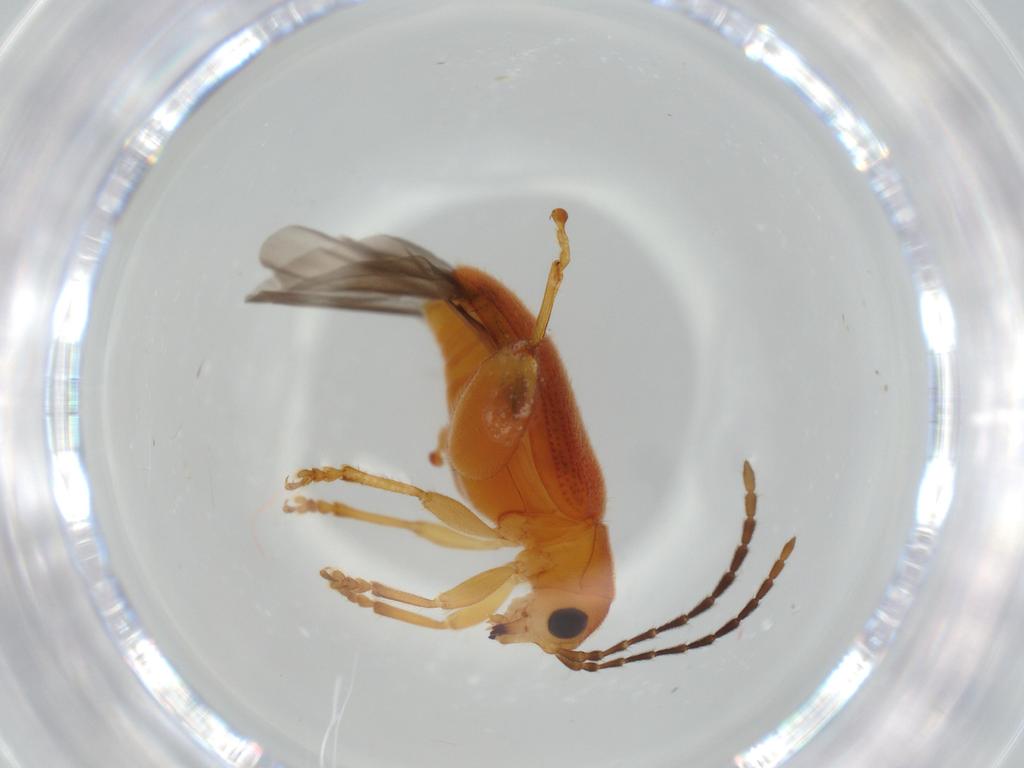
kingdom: Animalia
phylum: Arthropoda
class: Insecta
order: Coleoptera
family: Chrysomelidae
